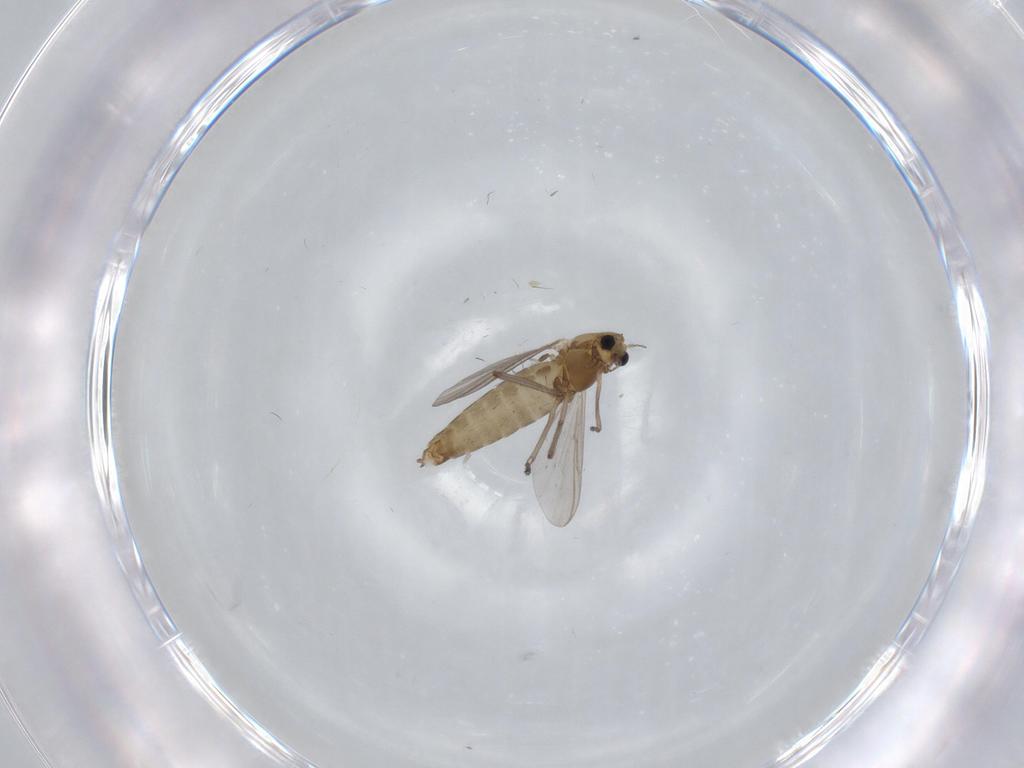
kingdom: Animalia
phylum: Arthropoda
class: Insecta
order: Diptera
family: Chironomidae
